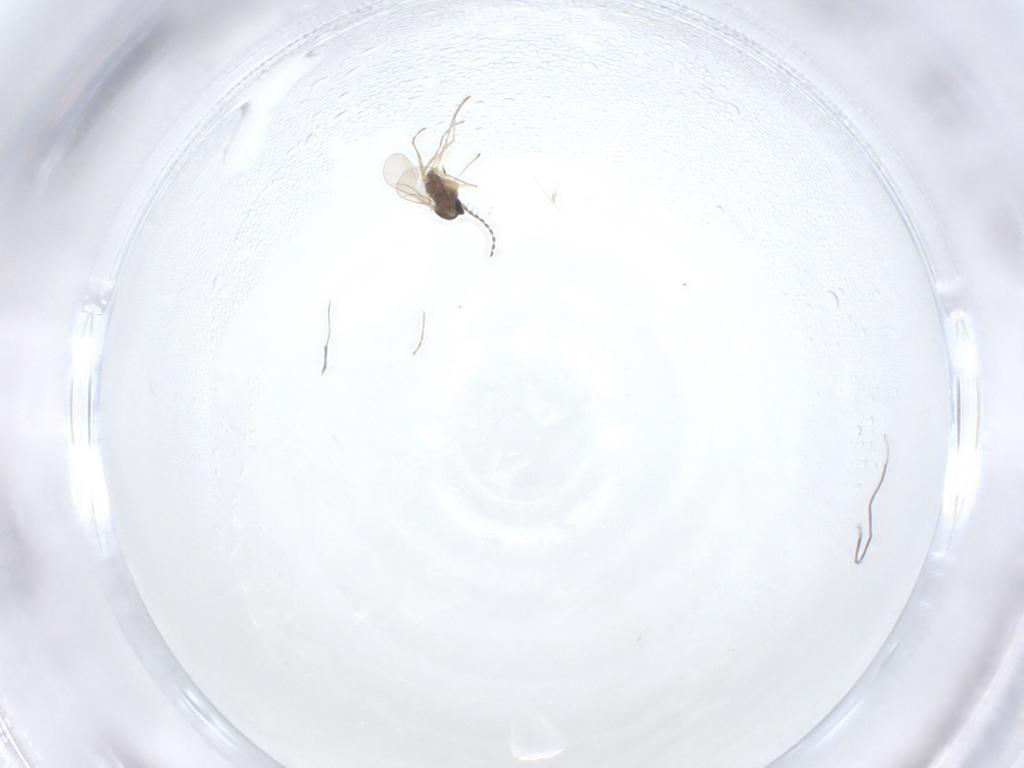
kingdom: Animalia
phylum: Arthropoda
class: Insecta
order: Diptera
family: Cecidomyiidae
